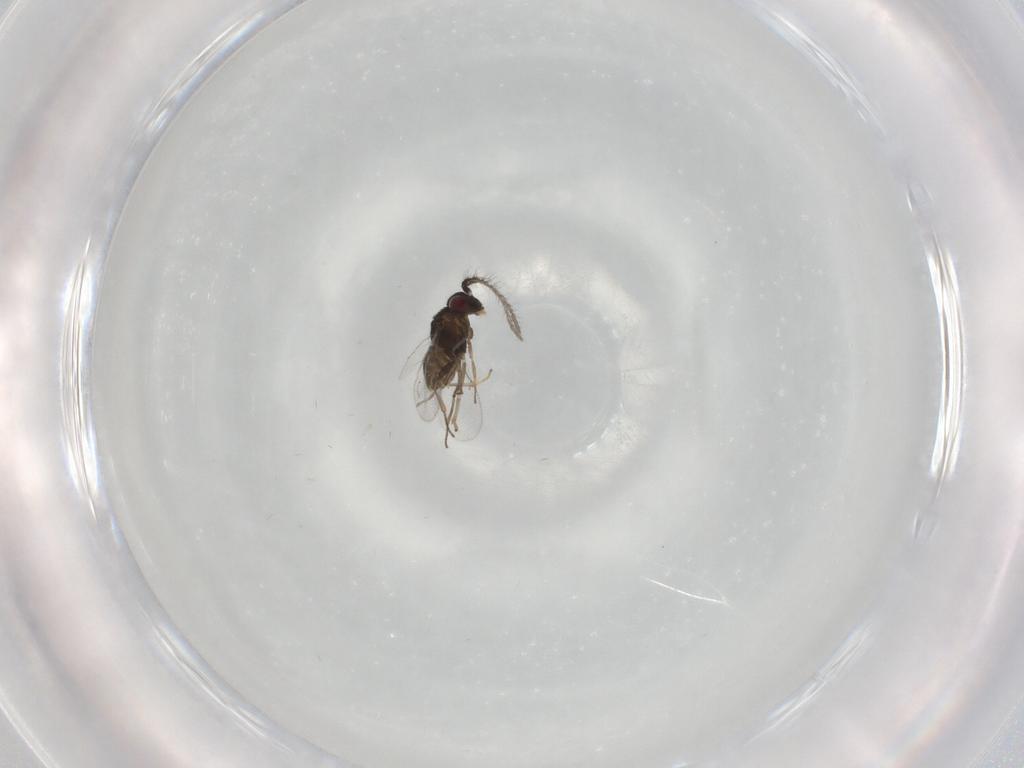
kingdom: Animalia
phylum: Arthropoda
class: Insecta
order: Hymenoptera
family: Encyrtidae
